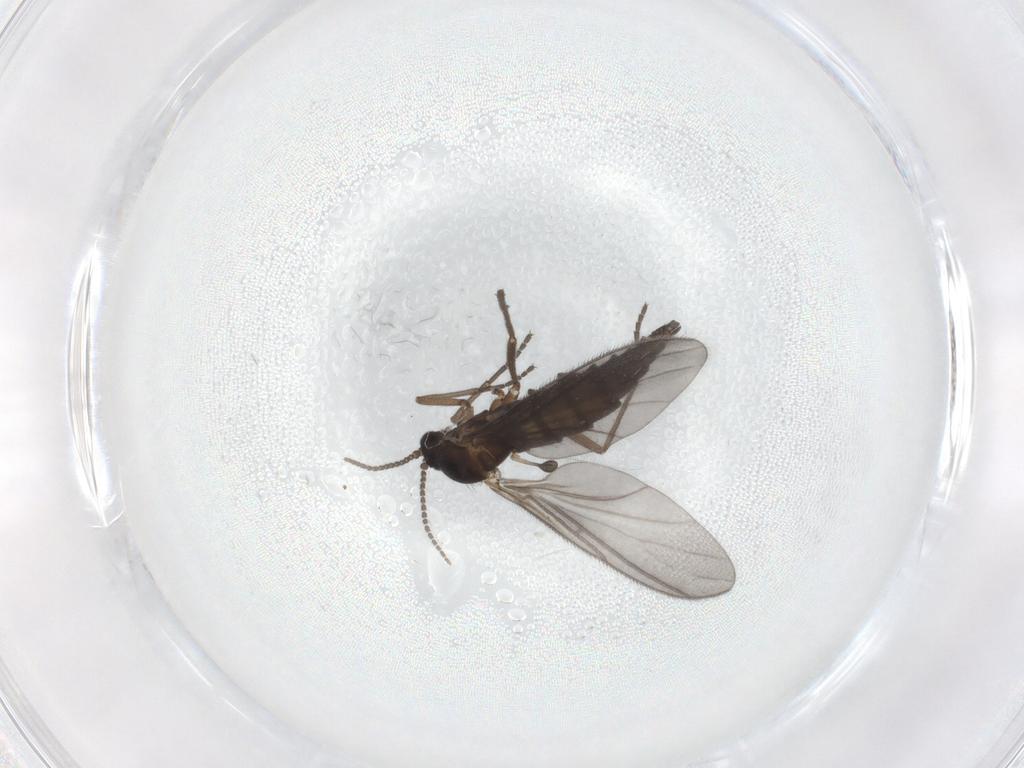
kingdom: Animalia
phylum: Arthropoda
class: Insecta
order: Diptera
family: Sciaridae
